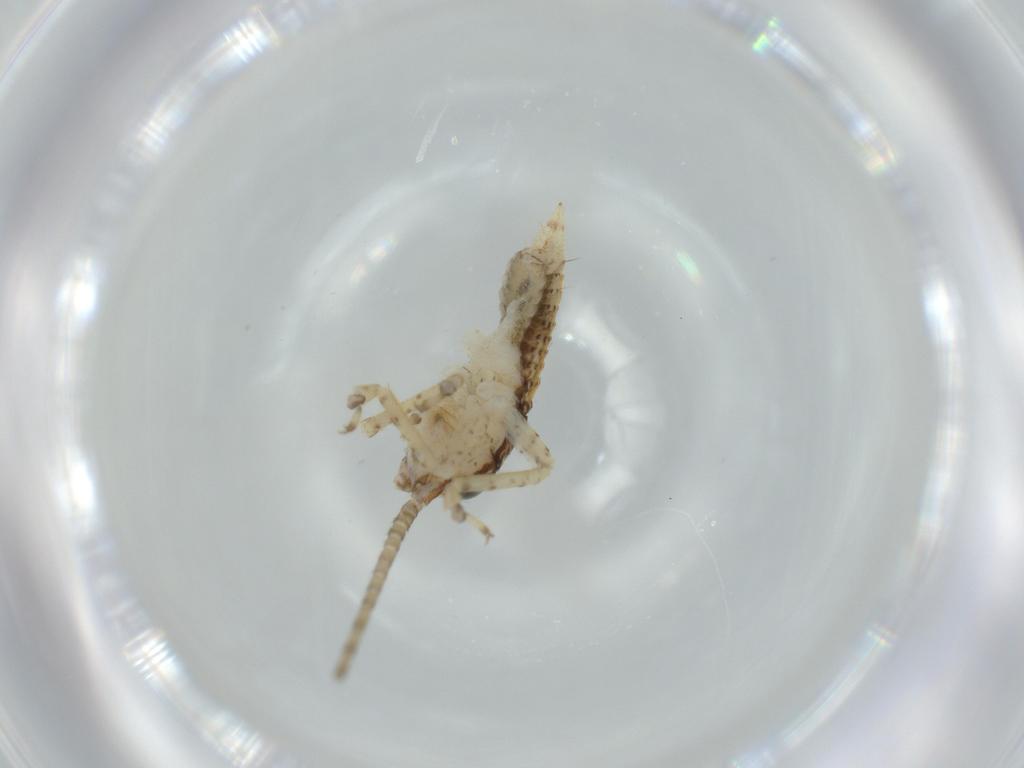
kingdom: Animalia
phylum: Arthropoda
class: Insecta
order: Orthoptera
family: Gryllidae
